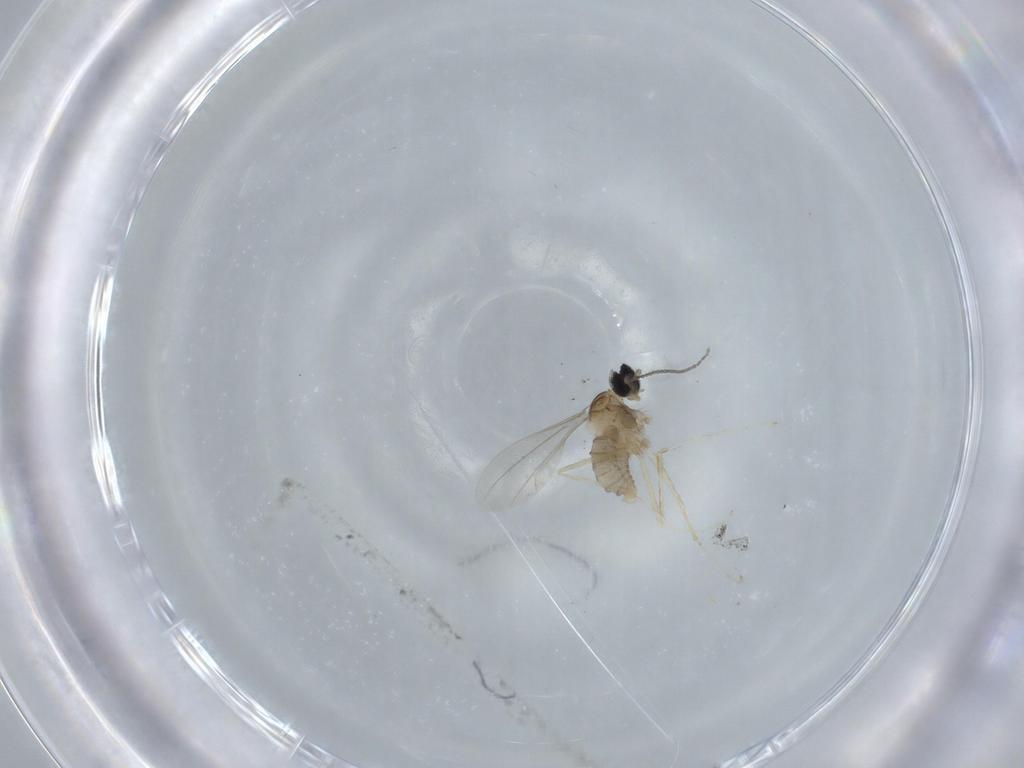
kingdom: Animalia
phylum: Arthropoda
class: Insecta
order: Diptera
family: Cecidomyiidae
